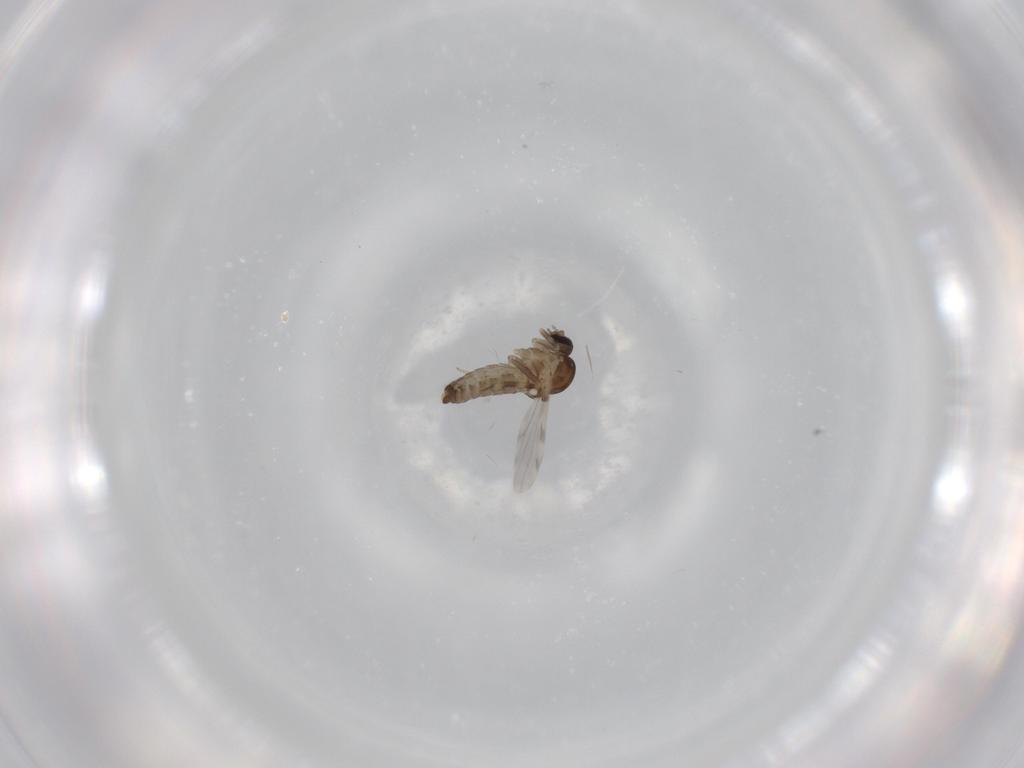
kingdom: Animalia
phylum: Arthropoda
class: Insecta
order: Diptera
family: Ceratopogonidae
